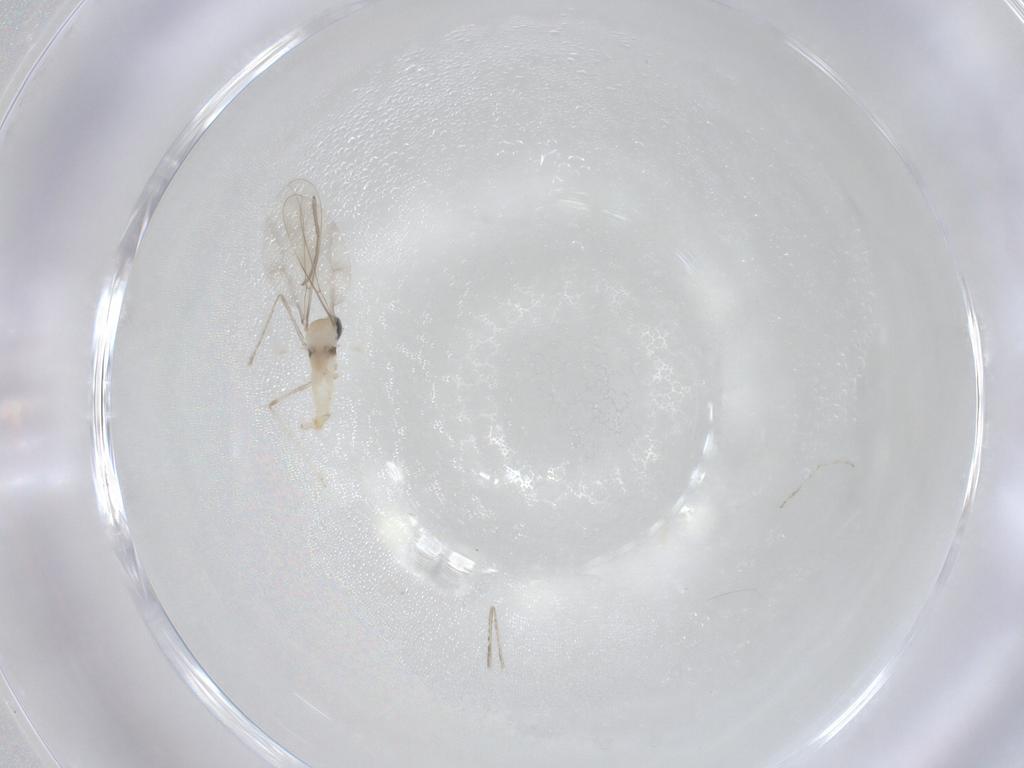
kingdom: Animalia
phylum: Arthropoda
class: Insecta
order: Diptera
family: Cecidomyiidae
